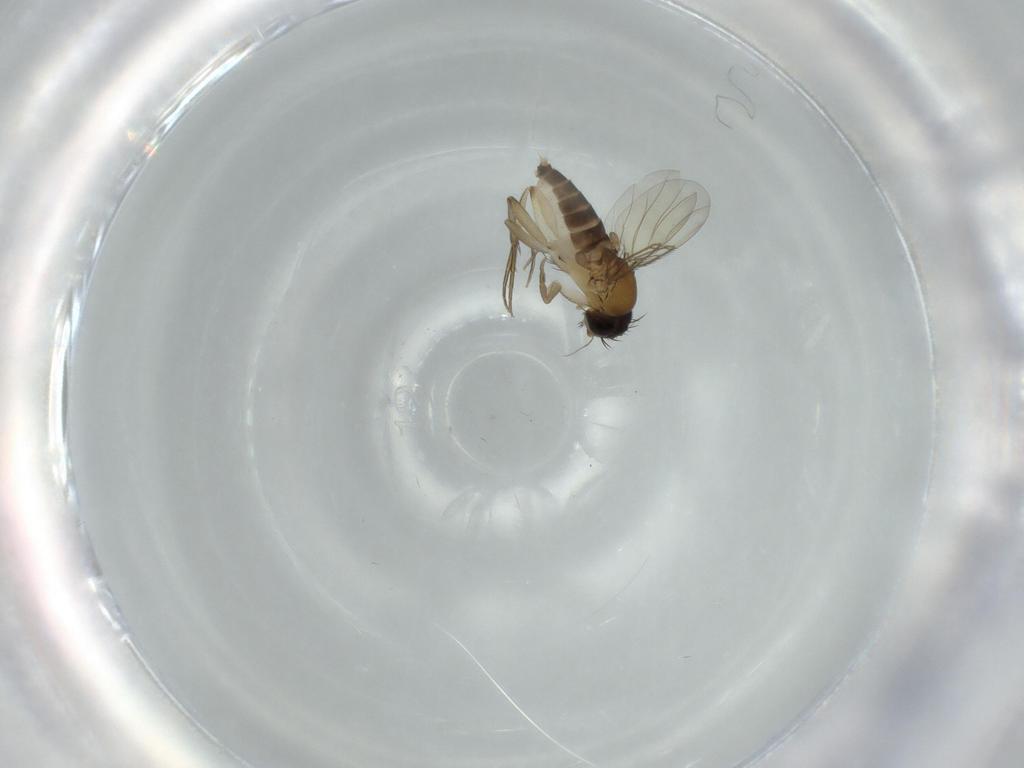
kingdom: Animalia
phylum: Arthropoda
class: Insecta
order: Diptera
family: Phoridae
